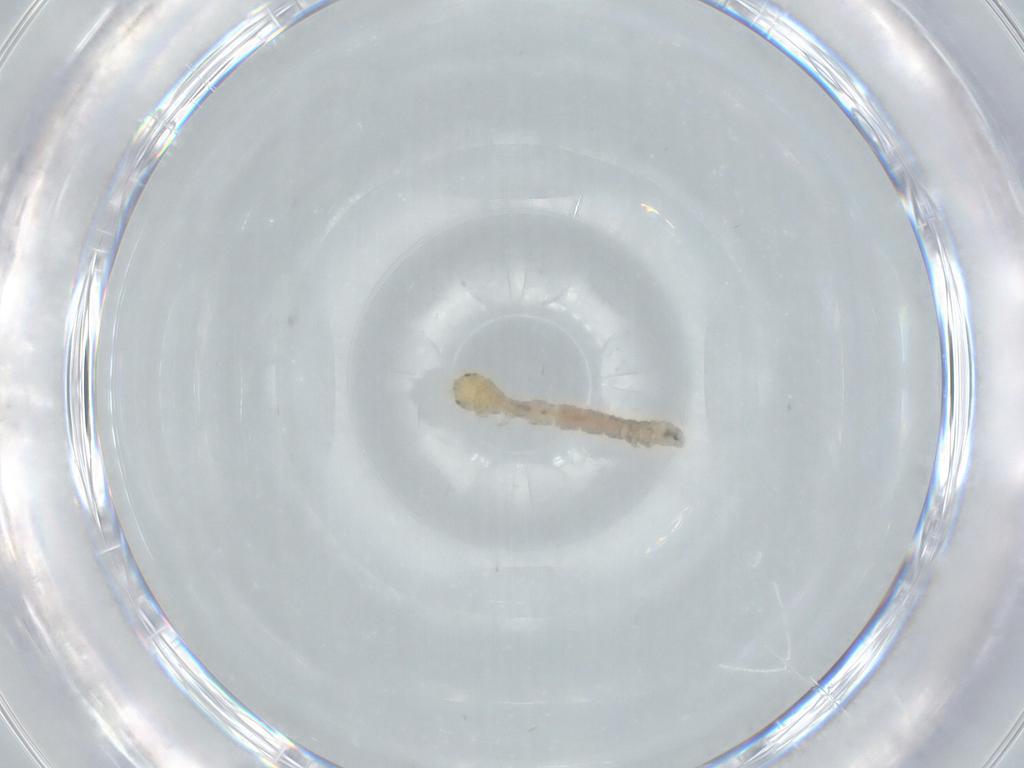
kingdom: Animalia
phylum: Arthropoda
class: Insecta
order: Lepidoptera
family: Erebidae
